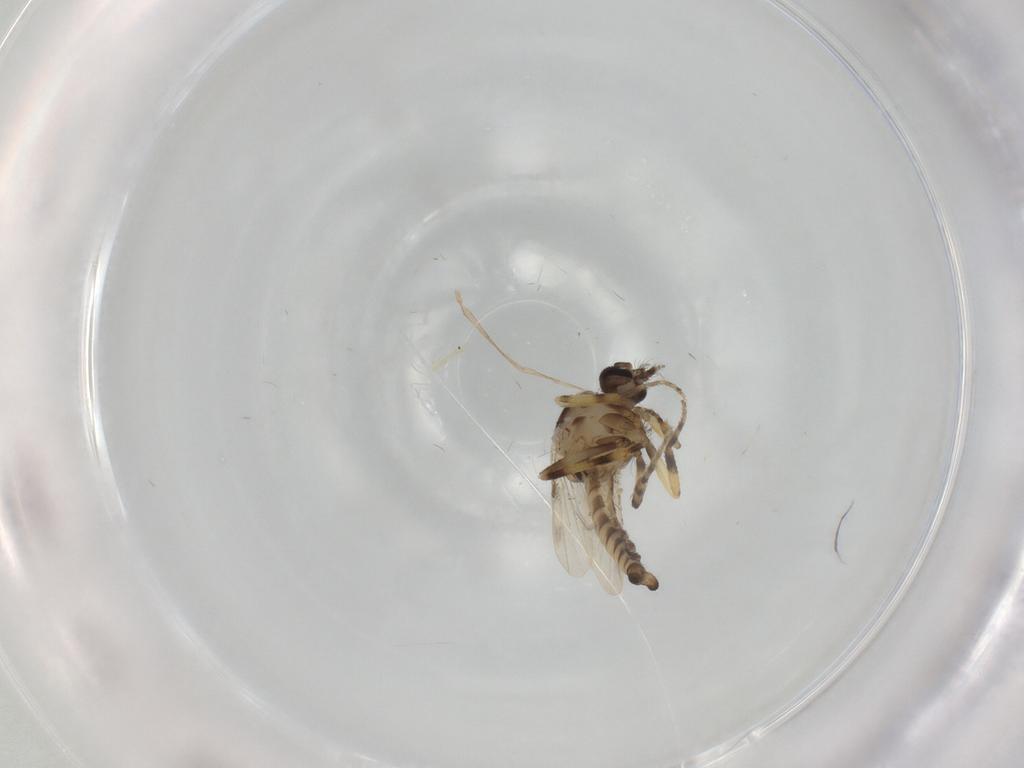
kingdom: Animalia
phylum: Arthropoda
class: Insecta
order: Diptera
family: Ceratopogonidae
